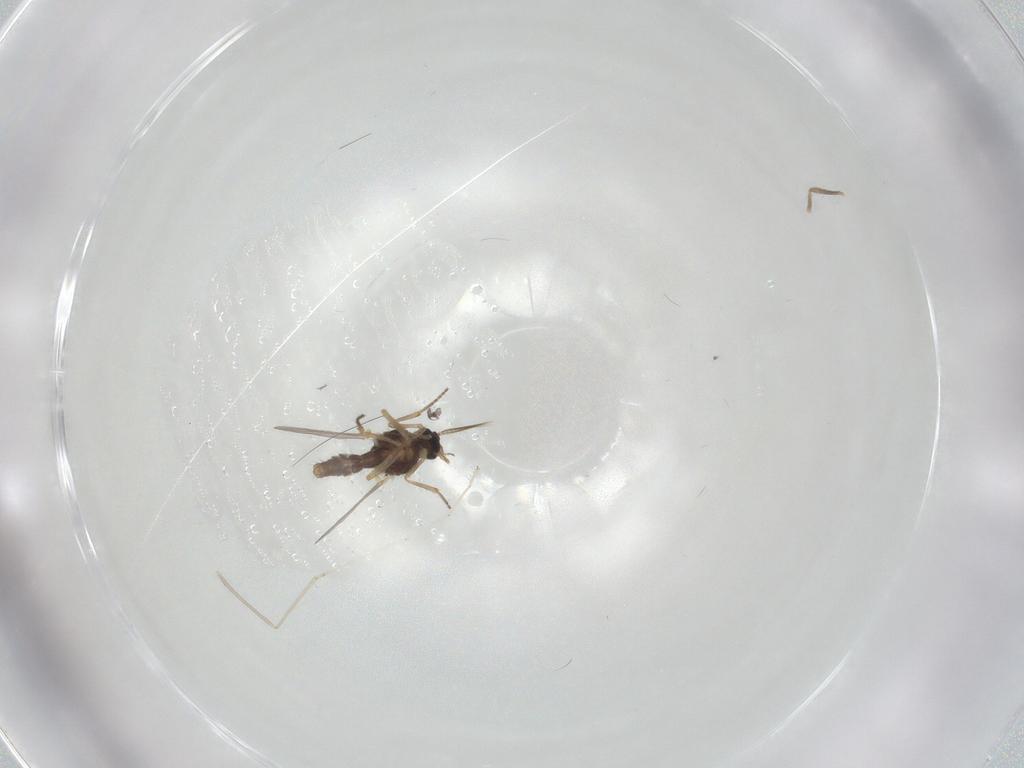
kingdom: Animalia
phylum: Arthropoda
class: Insecta
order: Diptera
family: Ceratopogonidae
